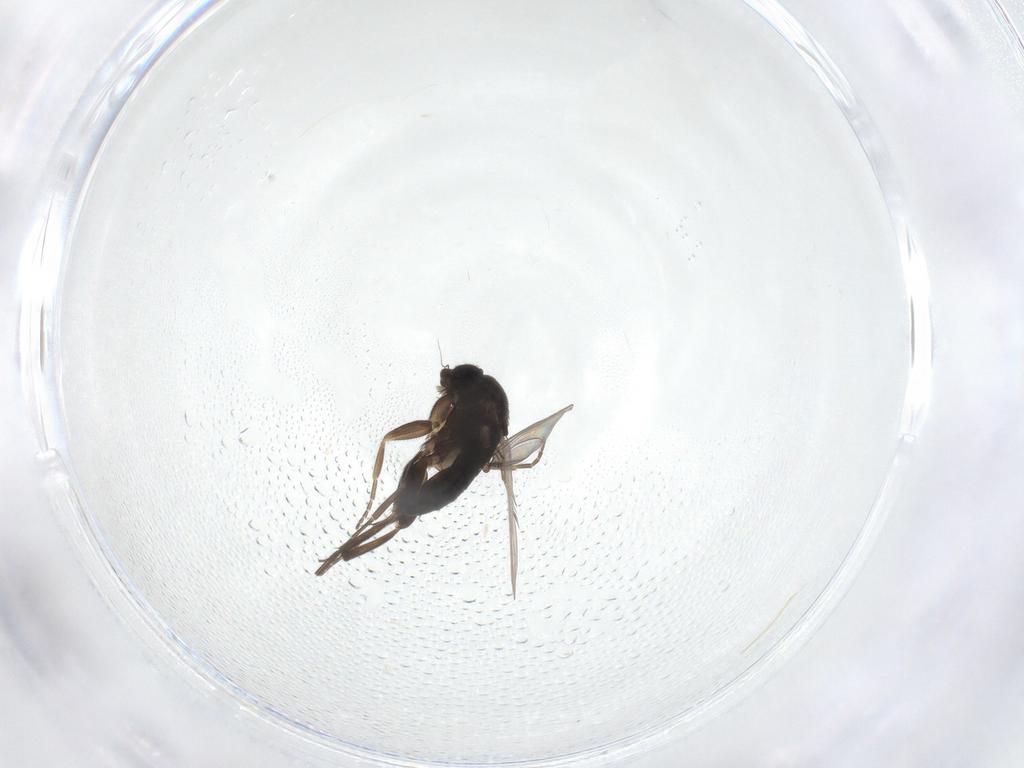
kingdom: Animalia
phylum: Arthropoda
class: Insecta
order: Diptera
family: Phoridae
